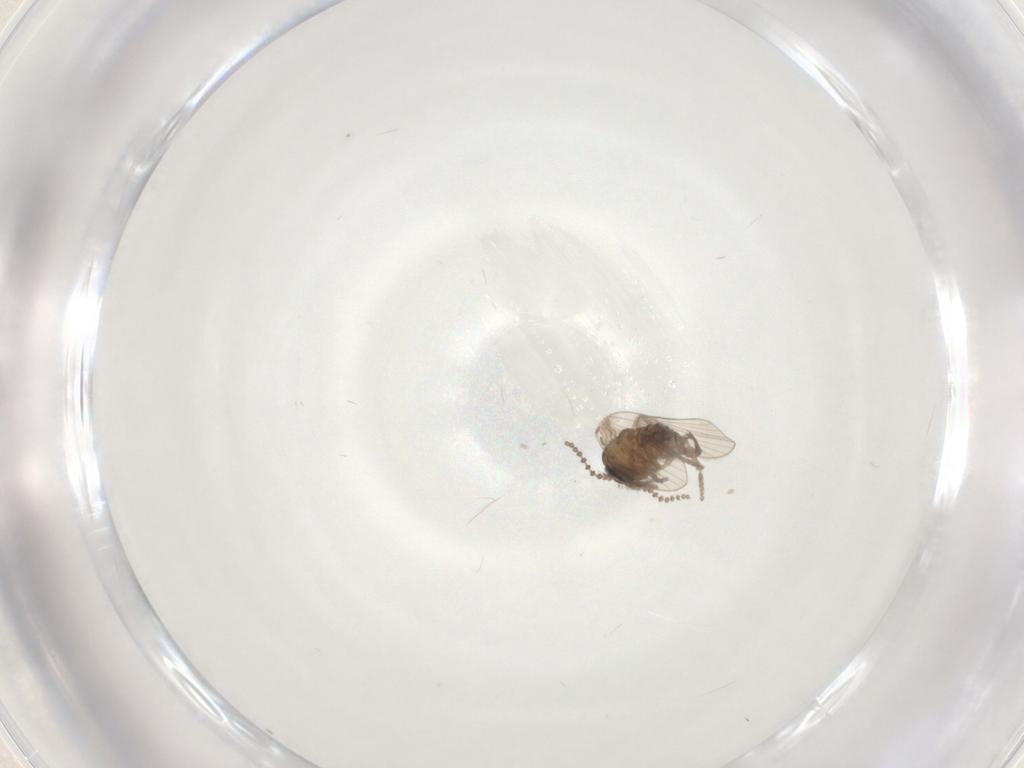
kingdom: Animalia
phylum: Arthropoda
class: Insecta
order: Diptera
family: Psychodidae
